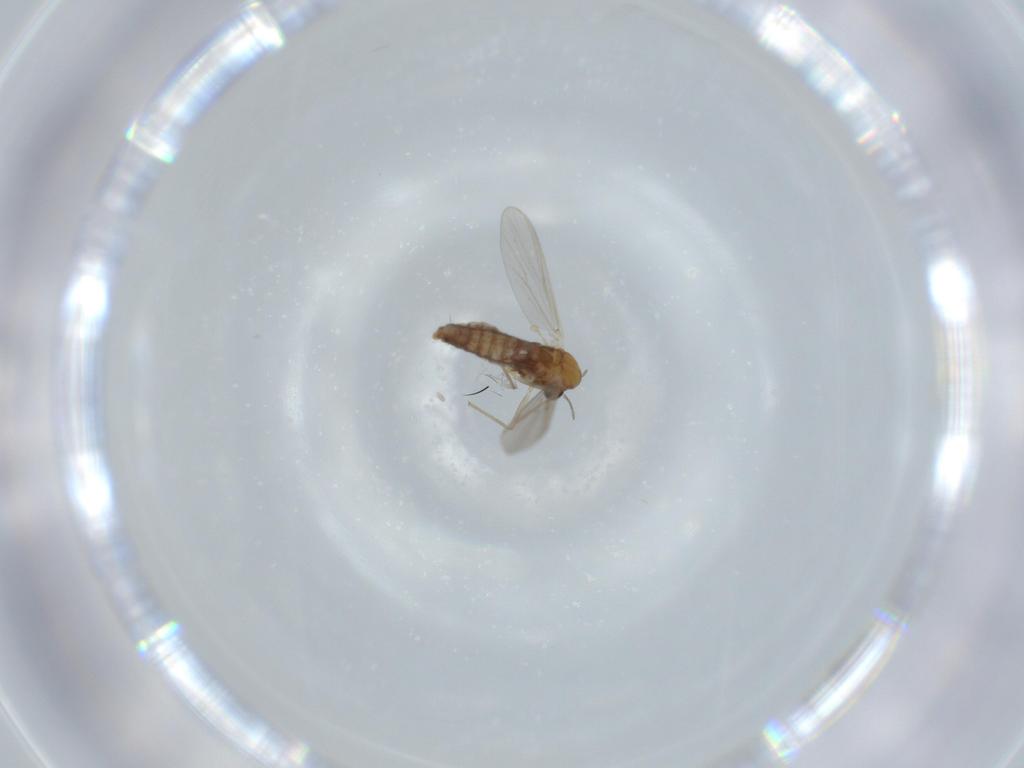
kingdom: Animalia
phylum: Arthropoda
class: Insecta
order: Diptera
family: Chironomidae
